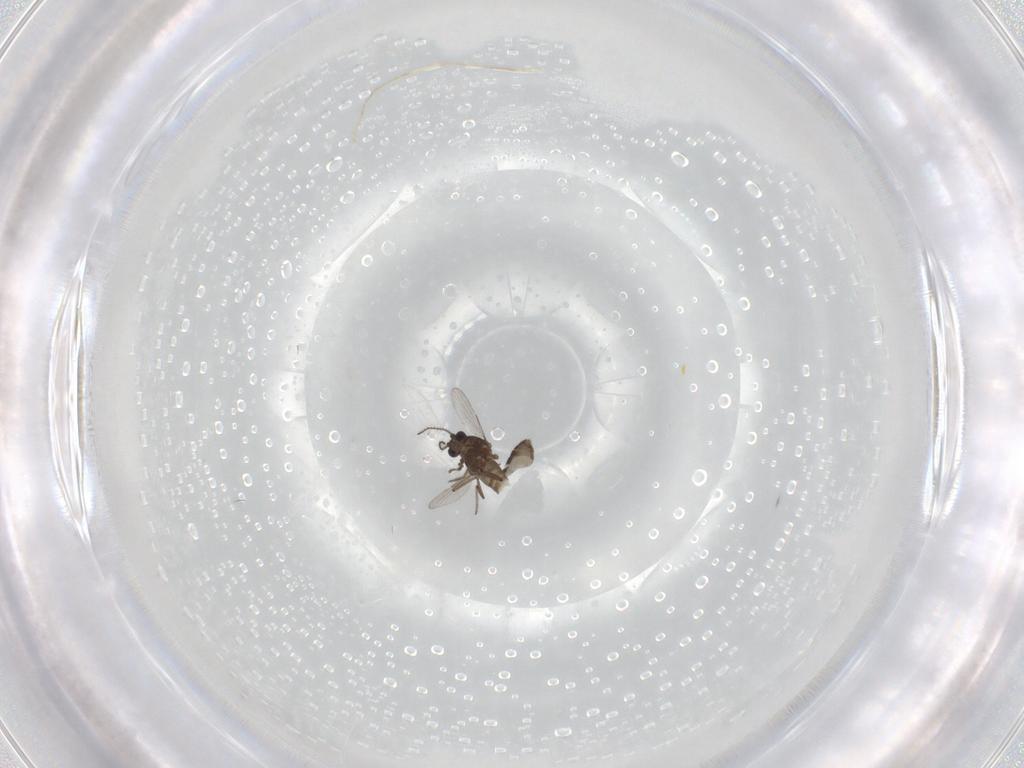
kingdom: Animalia
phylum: Arthropoda
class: Insecta
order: Diptera
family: Ceratopogonidae
